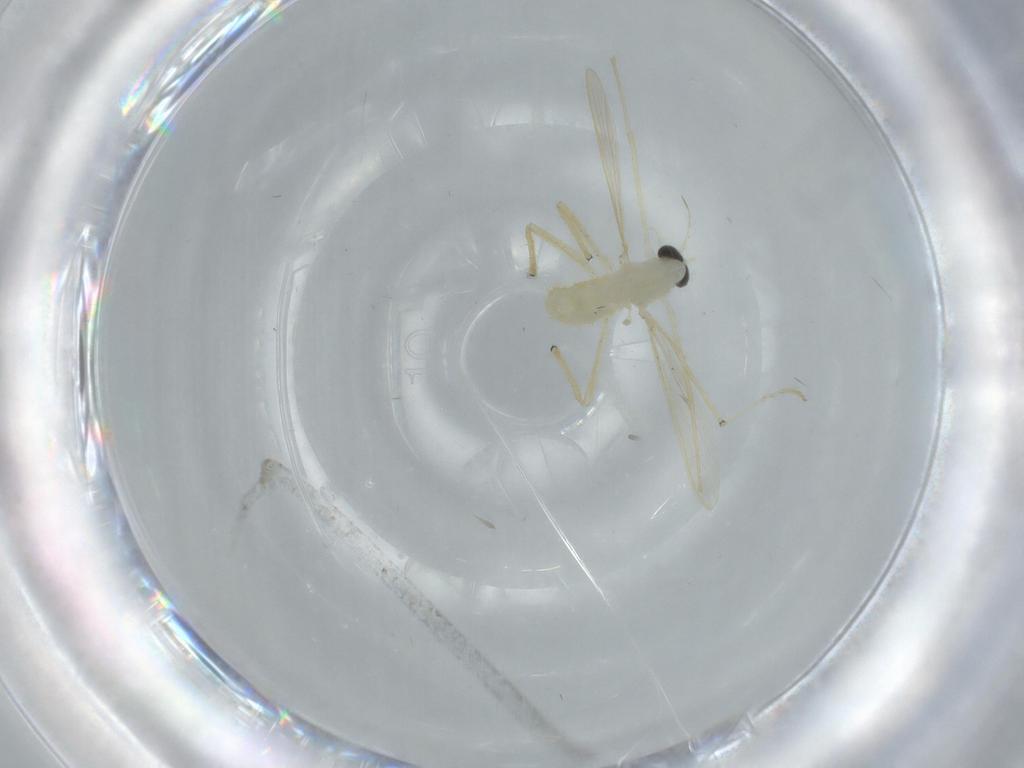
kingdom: Animalia
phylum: Arthropoda
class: Insecta
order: Diptera
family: Chironomidae
